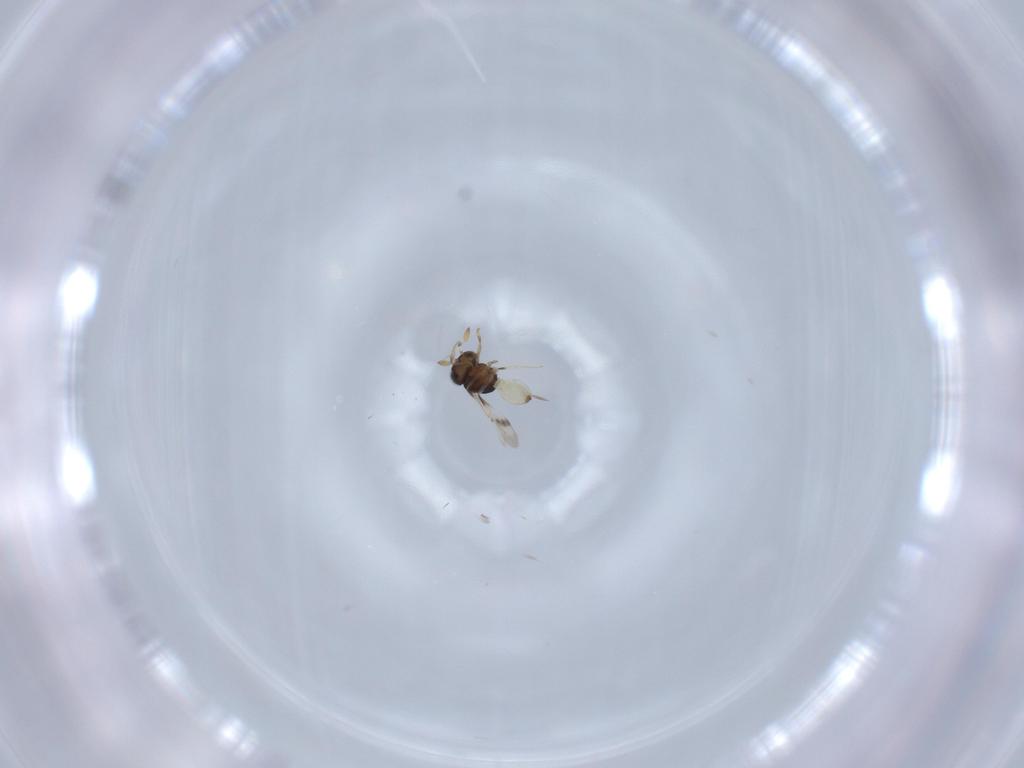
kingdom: Animalia
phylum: Arthropoda
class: Insecta
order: Hymenoptera
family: Scelionidae
